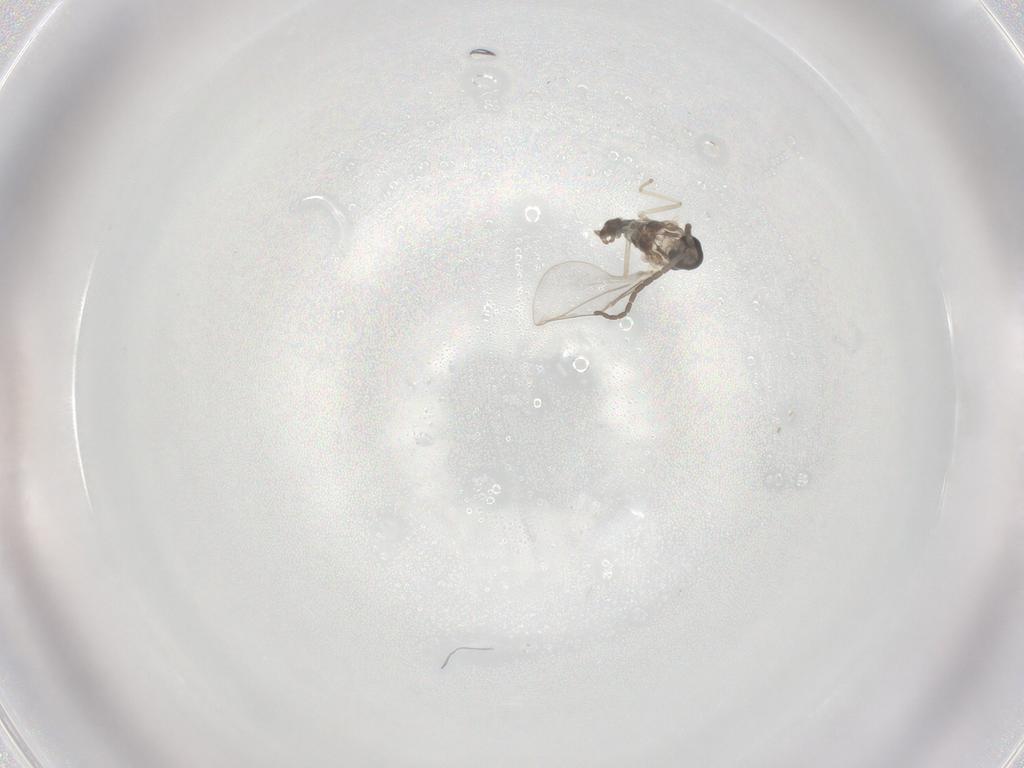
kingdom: Animalia
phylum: Arthropoda
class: Insecta
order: Diptera
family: Cecidomyiidae
